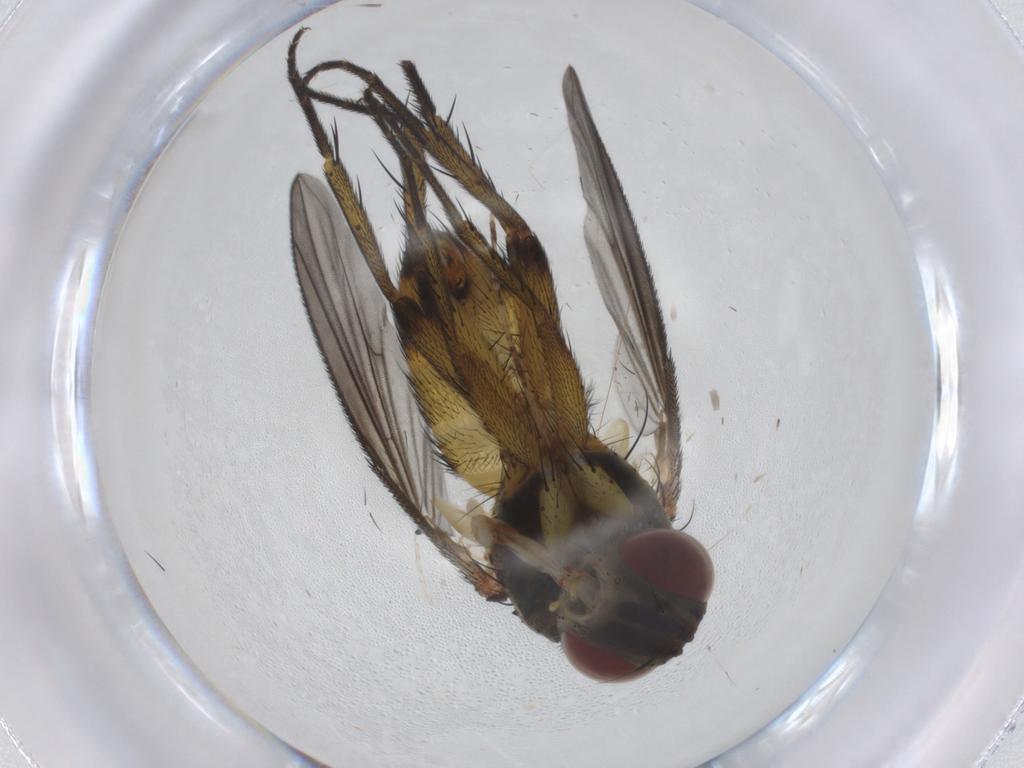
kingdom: Animalia
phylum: Arthropoda
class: Insecta
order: Diptera
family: Tachinidae
